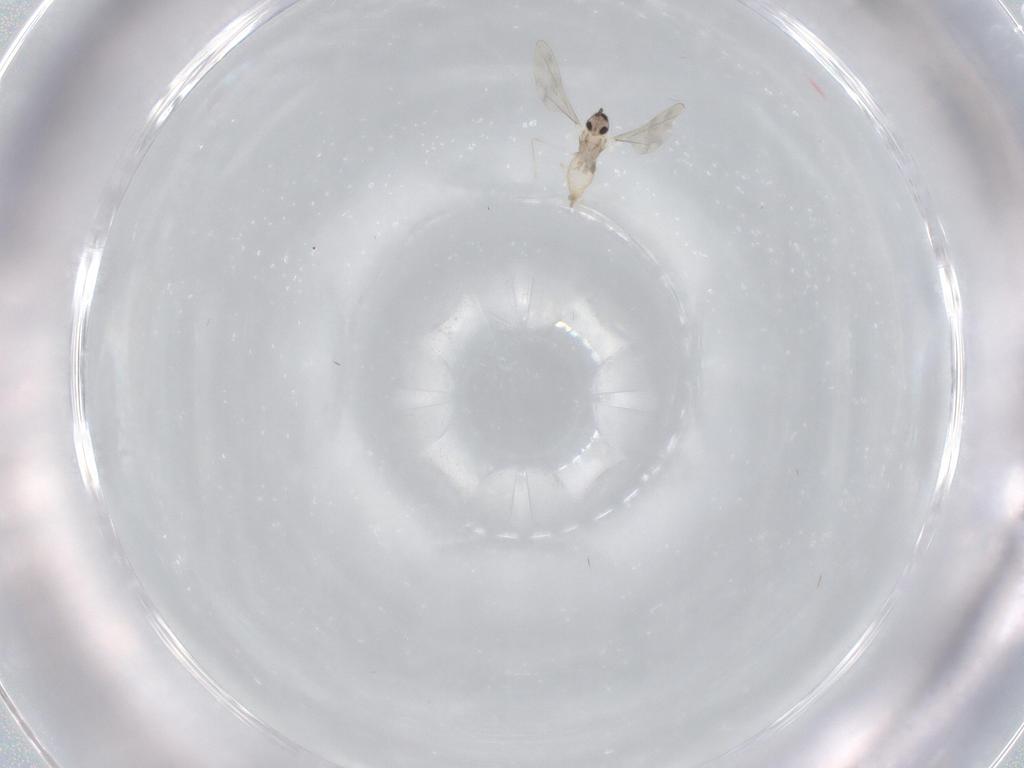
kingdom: Animalia
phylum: Arthropoda
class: Insecta
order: Diptera
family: Cecidomyiidae
